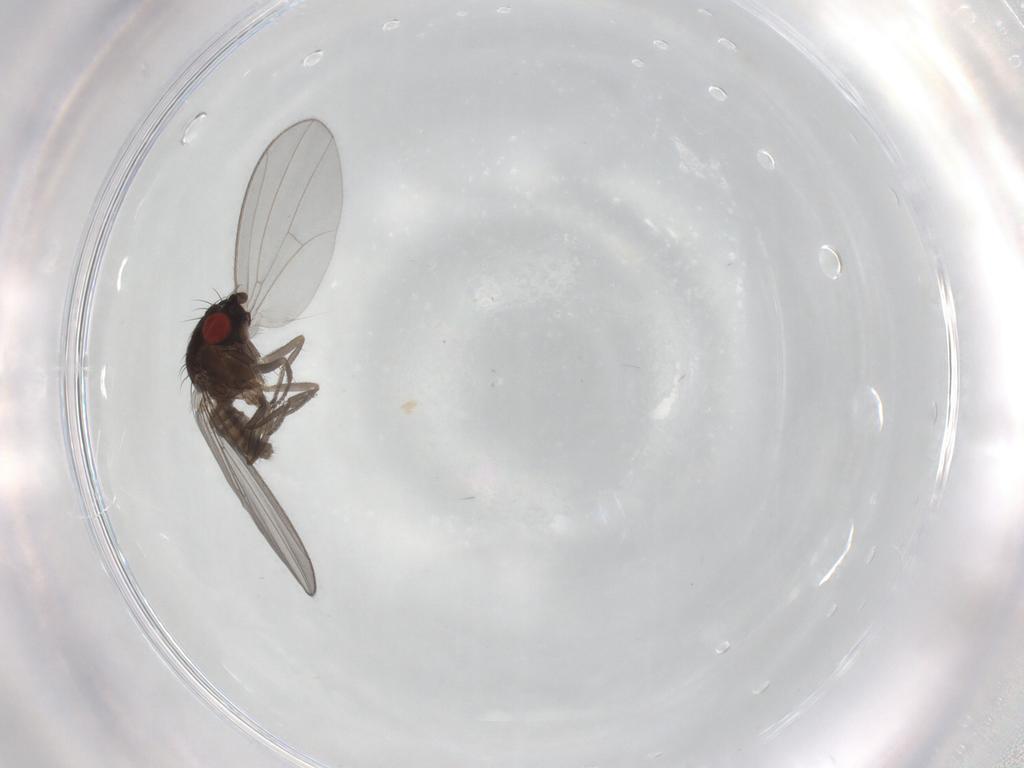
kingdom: Animalia
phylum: Arthropoda
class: Insecta
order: Diptera
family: Drosophilidae
